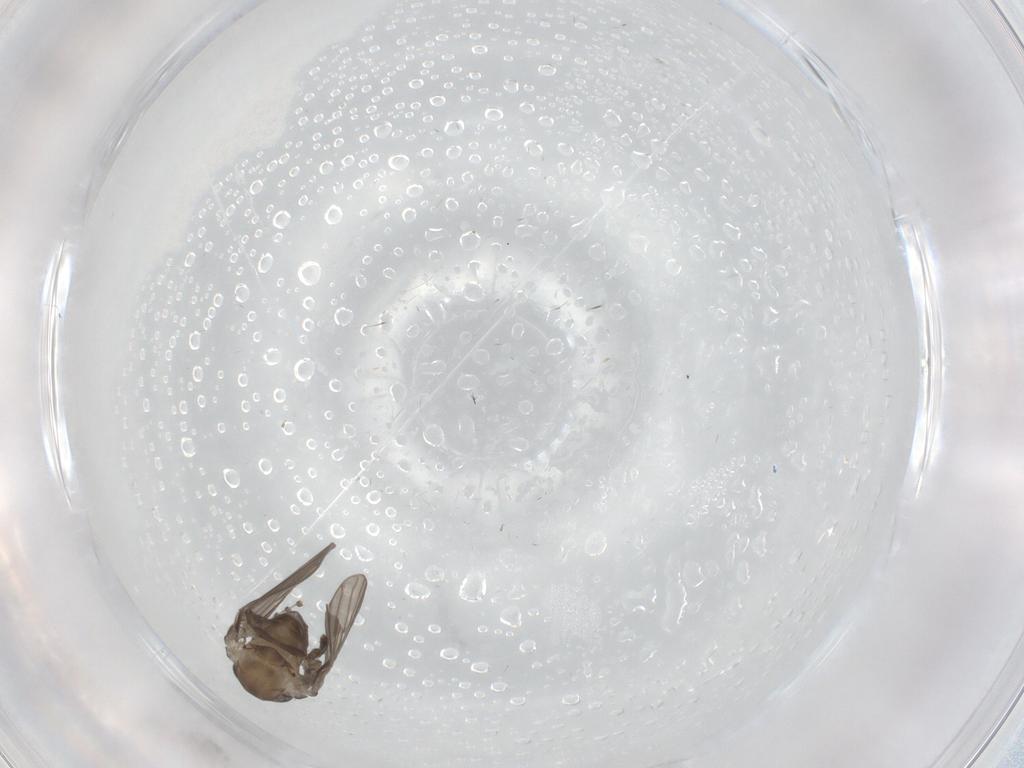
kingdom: Animalia
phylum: Arthropoda
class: Insecta
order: Diptera
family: Psychodidae
